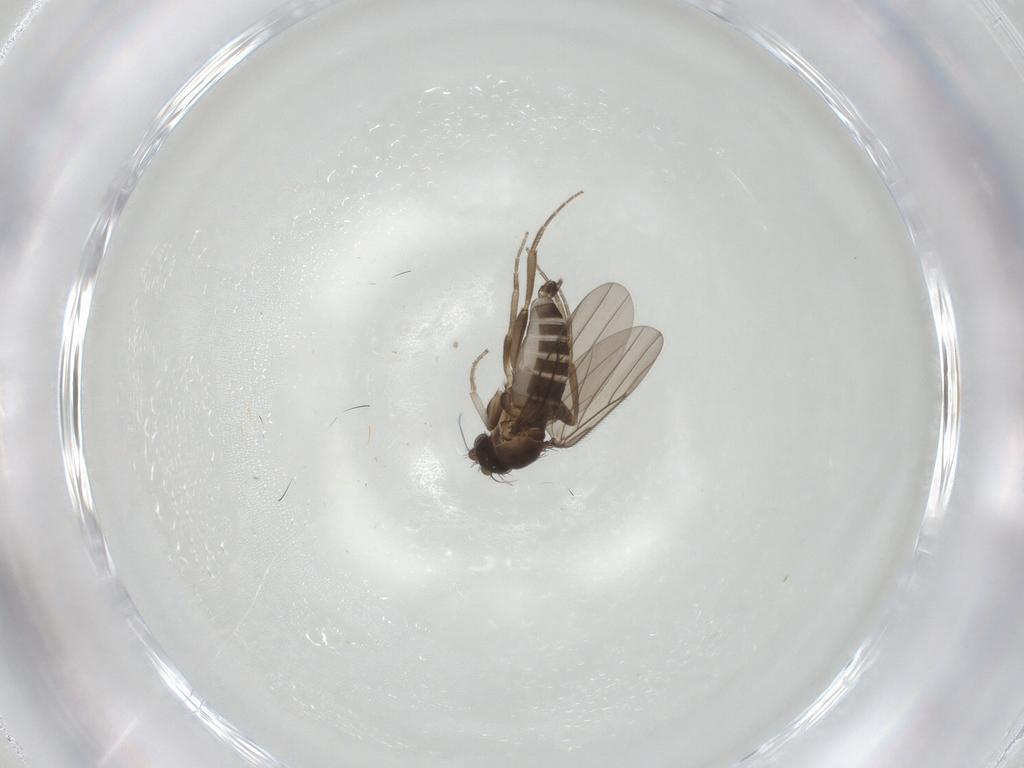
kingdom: Animalia
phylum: Arthropoda
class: Insecta
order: Diptera
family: Phoridae
